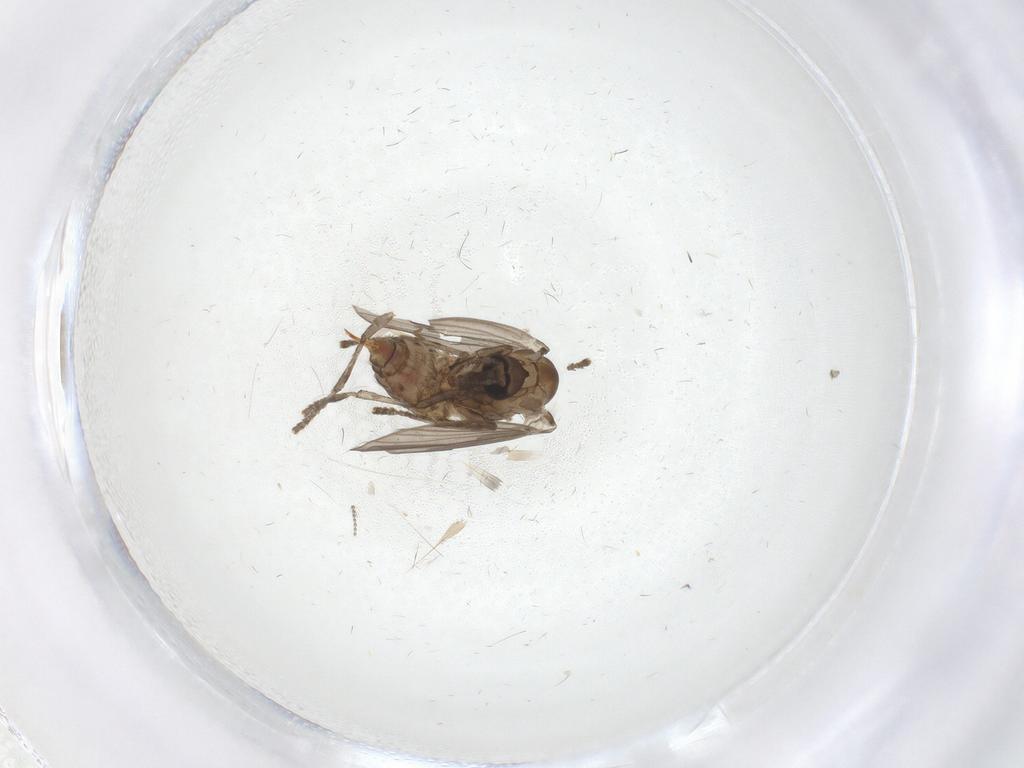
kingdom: Animalia
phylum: Arthropoda
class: Insecta
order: Diptera
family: Psychodidae
